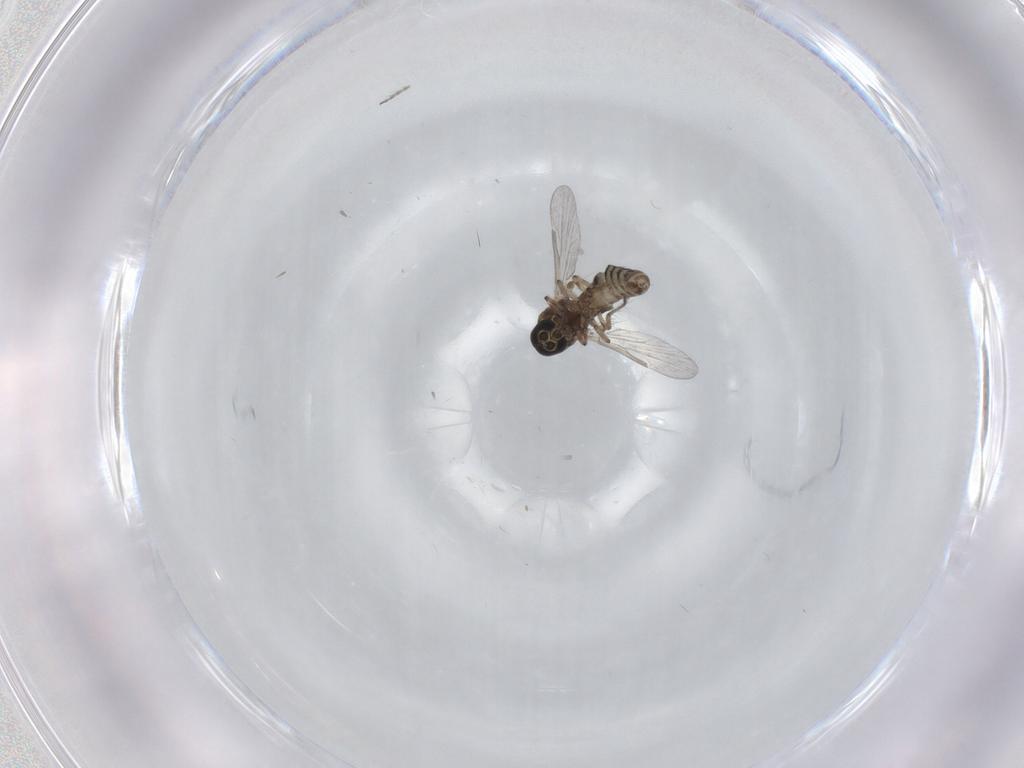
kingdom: Animalia
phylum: Arthropoda
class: Insecta
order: Diptera
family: Ceratopogonidae
